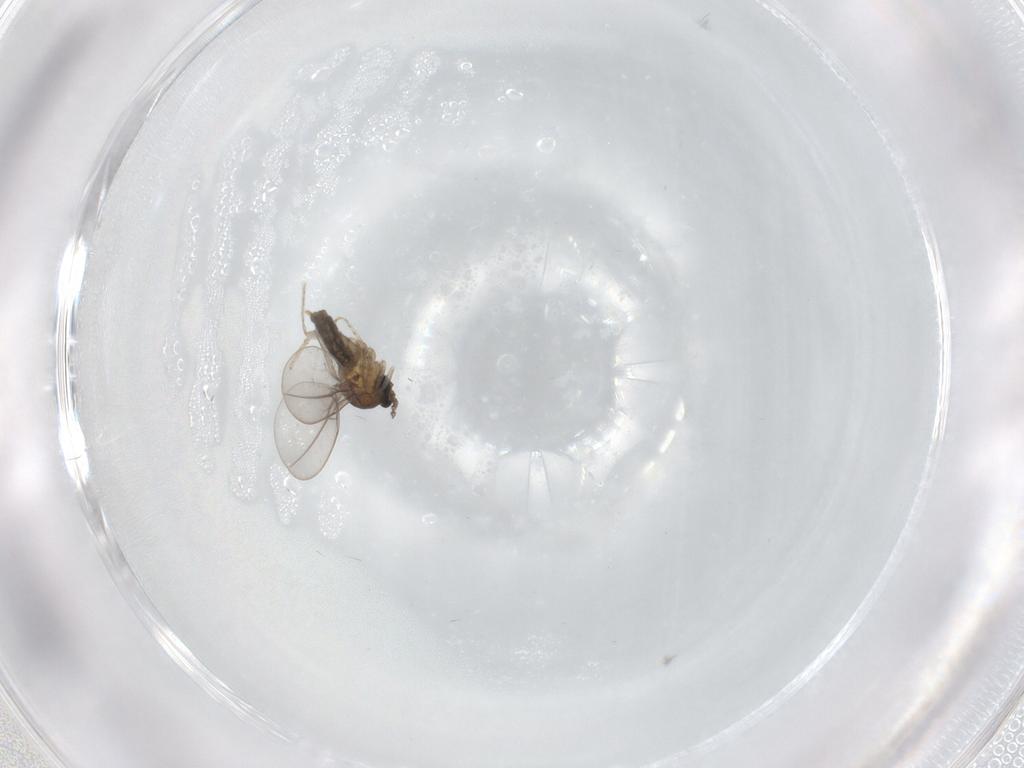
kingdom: Animalia
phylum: Arthropoda
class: Insecta
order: Diptera
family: Cecidomyiidae
